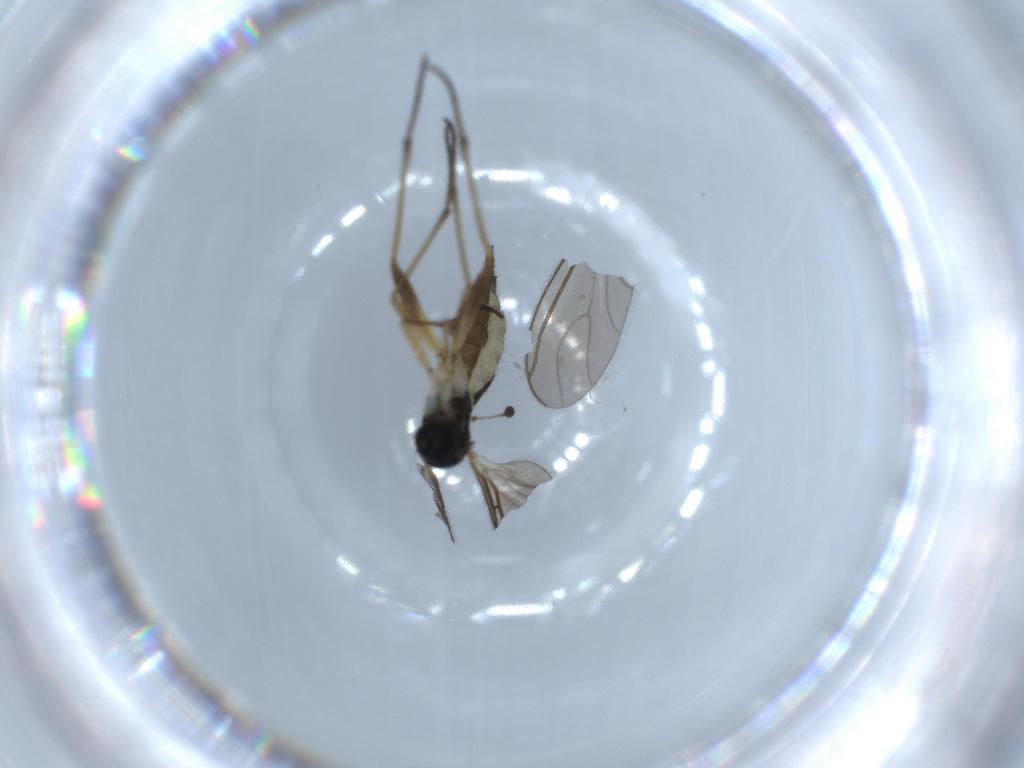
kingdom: Animalia
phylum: Arthropoda
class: Insecta
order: Diptera
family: Sciaridae
